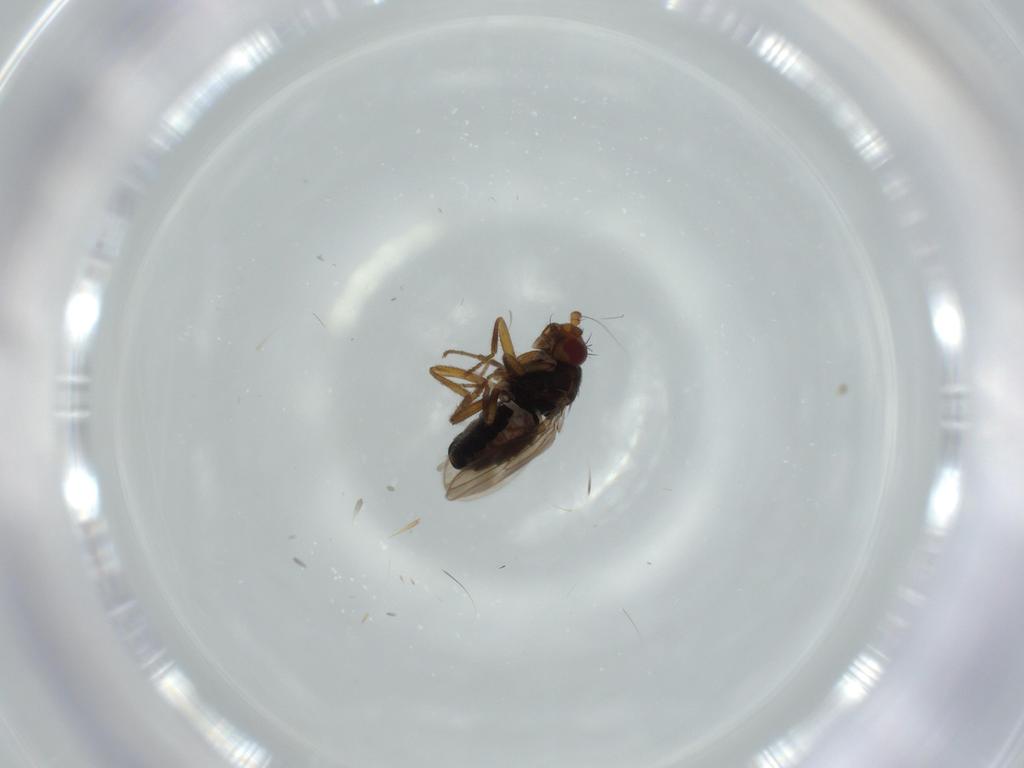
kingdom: Animalia
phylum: Arthropoda
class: Insecta
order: Diptera
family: Sphaeroceridae
